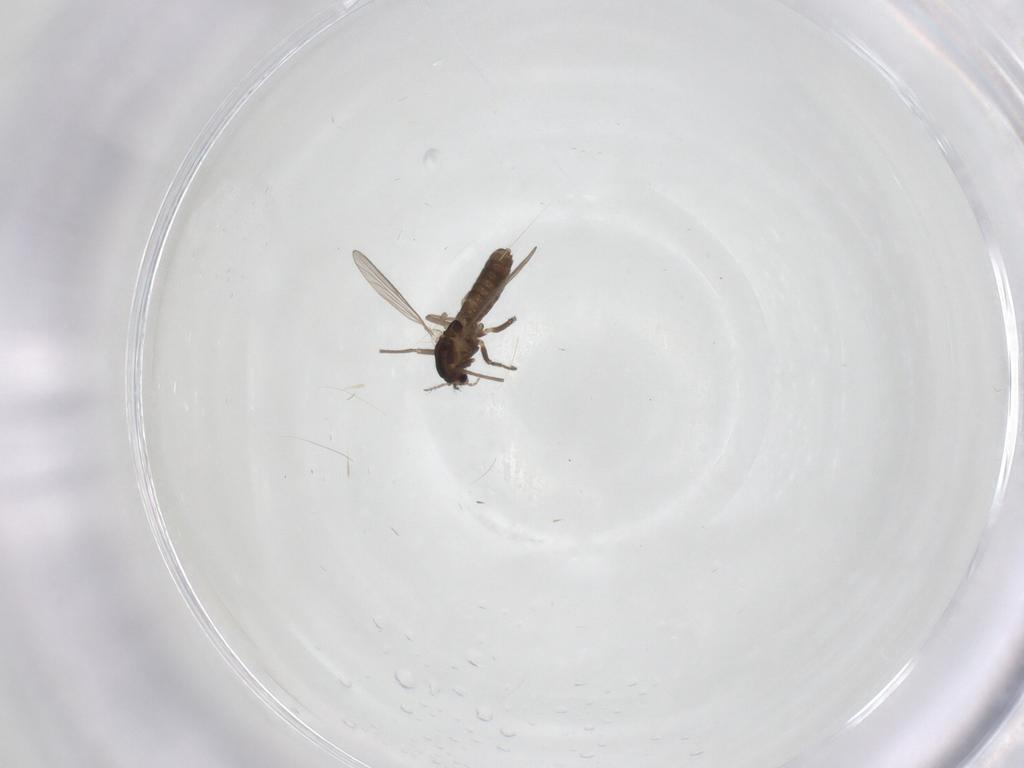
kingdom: Animalia
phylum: Arthropoda
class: Insecta
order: Diptera
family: Chironomidae
